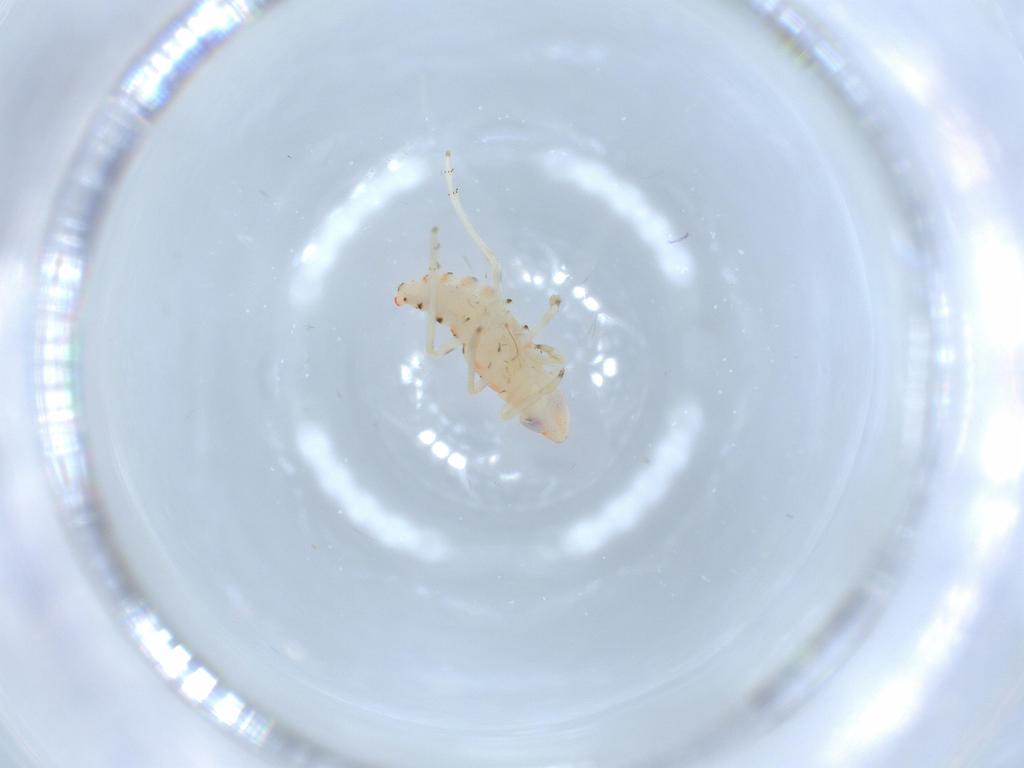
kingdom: Animalia
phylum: Arthropoda
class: Insecta
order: Hemiptera
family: Tropiduchidae
